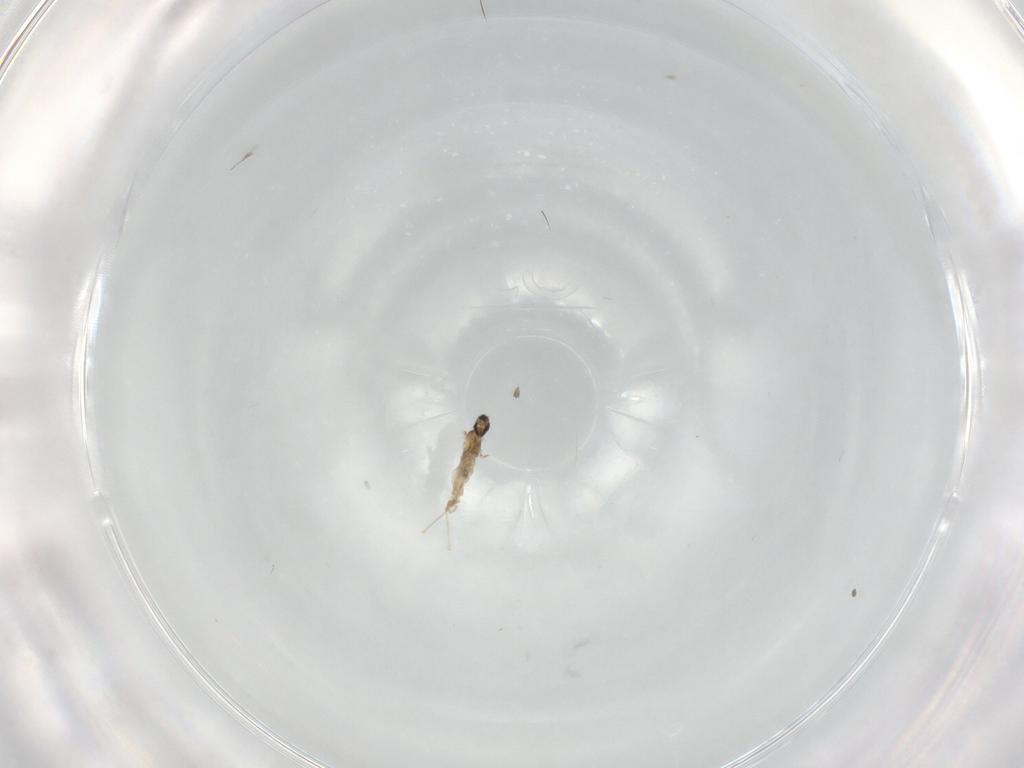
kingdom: Animalia
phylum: Arthropoda
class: Insecta
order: Diptera
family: Cecidomyiidae
